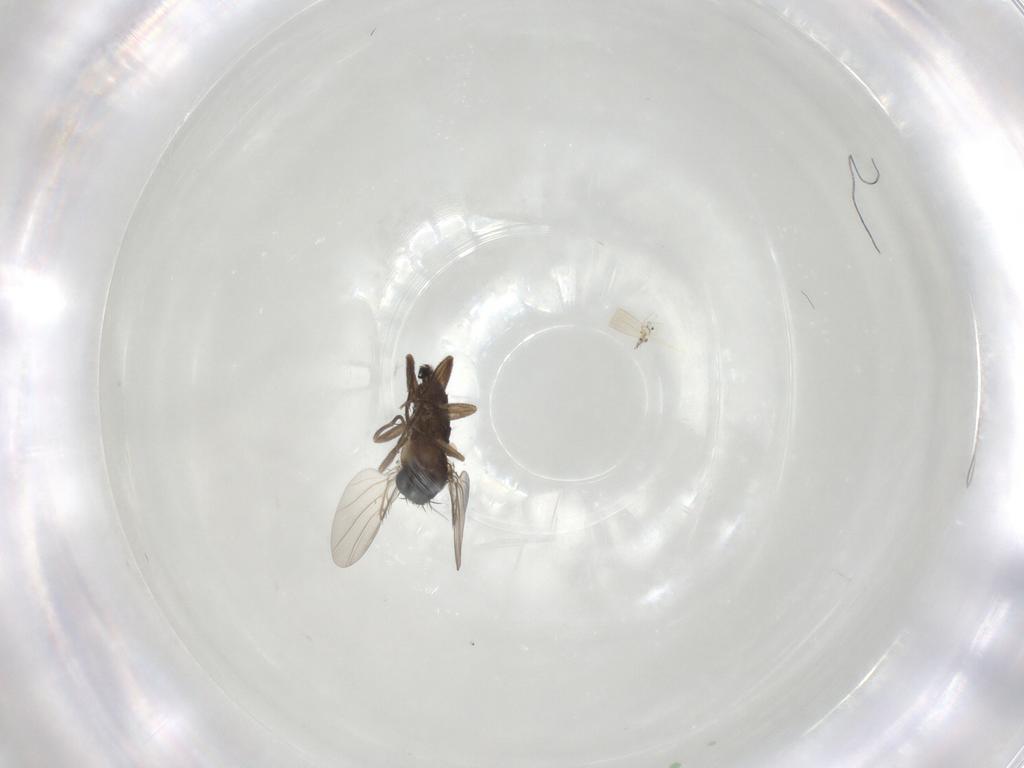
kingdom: Animalia
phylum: Arthropoda
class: Insecta
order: Diptera
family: Phoridae
